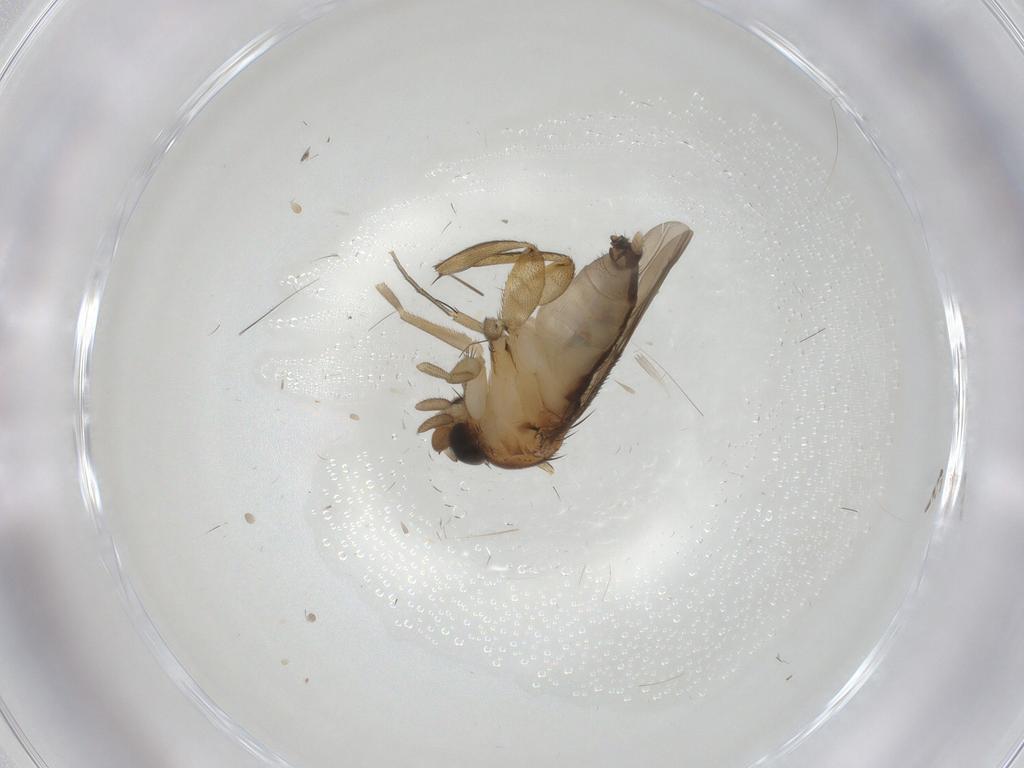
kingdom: Animalia
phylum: Arthropoda
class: Insecta
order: Diptera
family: Phoridae
